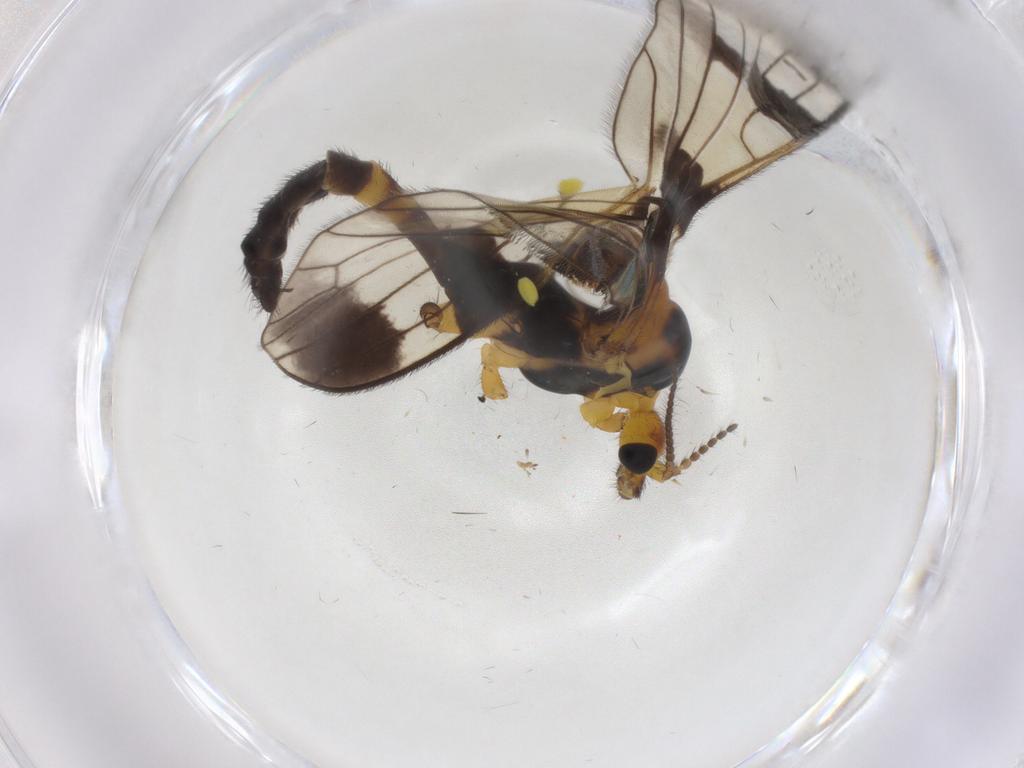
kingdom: Animalia
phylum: Arthropoda
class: Insecta
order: Diptera
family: Limoniidae
